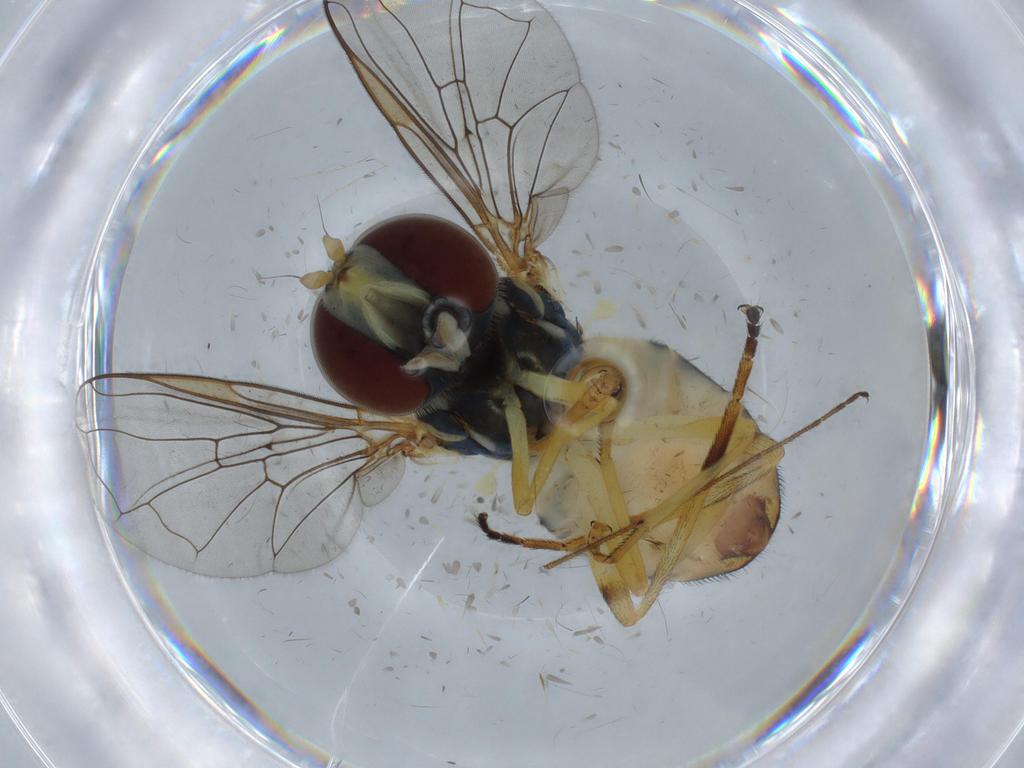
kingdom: Animalia
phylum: Arthropoda
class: Insecta
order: Diptera
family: Syrphidae
